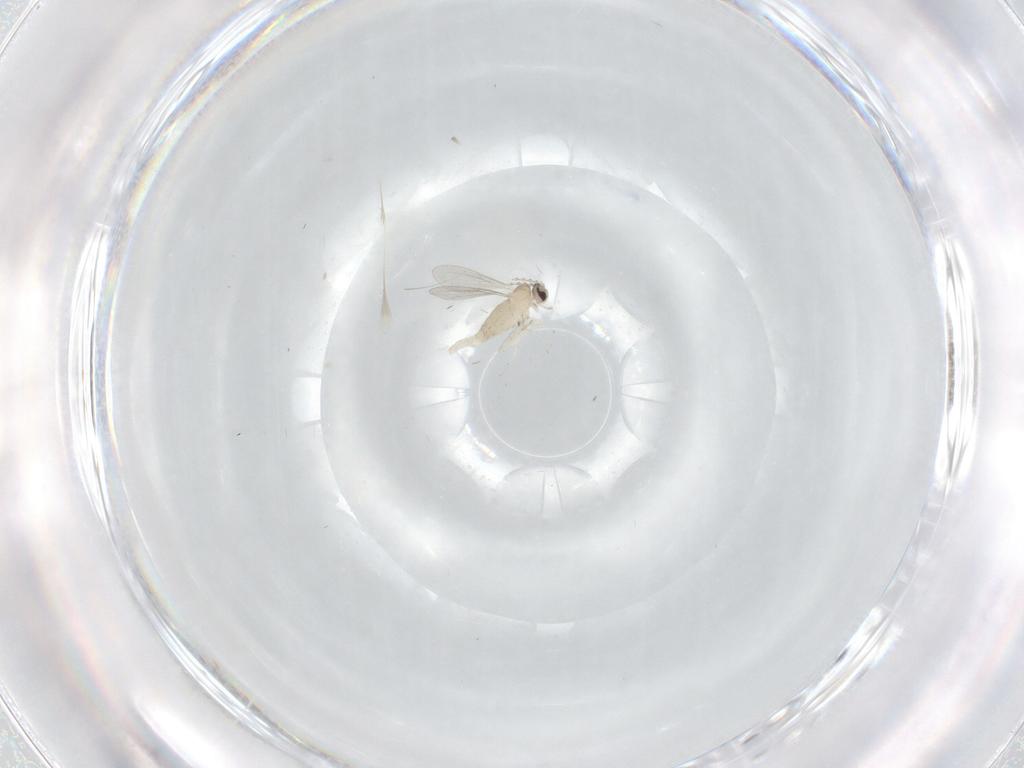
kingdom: Animalia
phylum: Arthropoda
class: Insecta
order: Diptera
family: Cecidomyiidae
